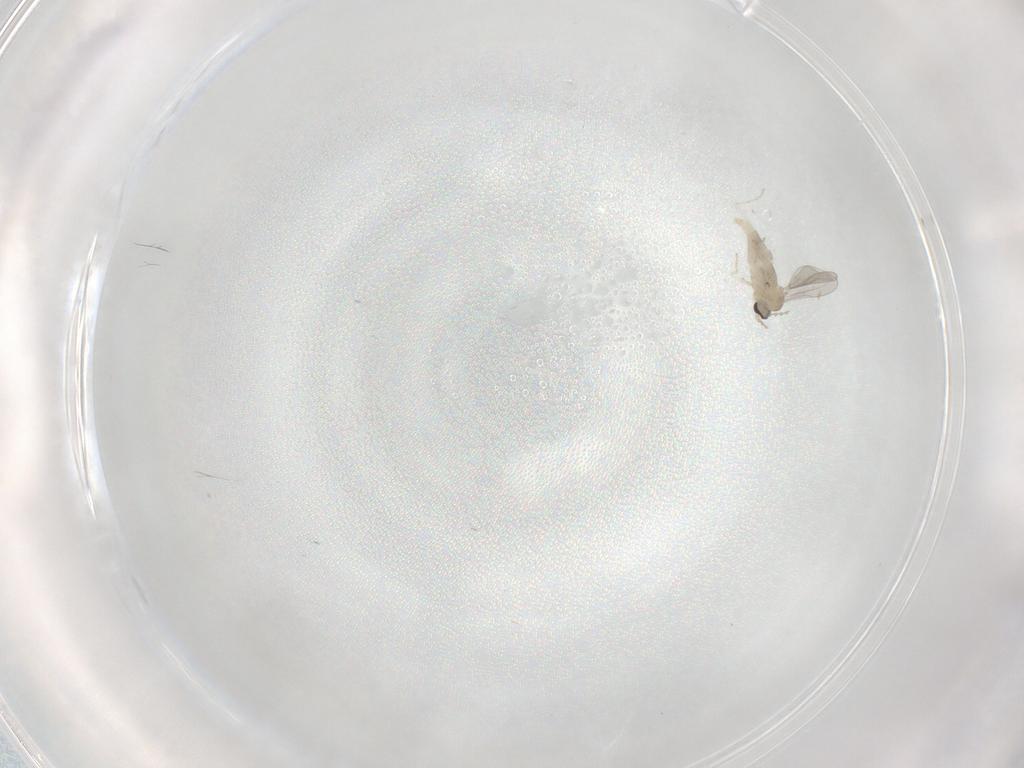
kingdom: Animalia
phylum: Arthropoda
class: Insecta
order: Diptera
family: Cecidomyiidae
